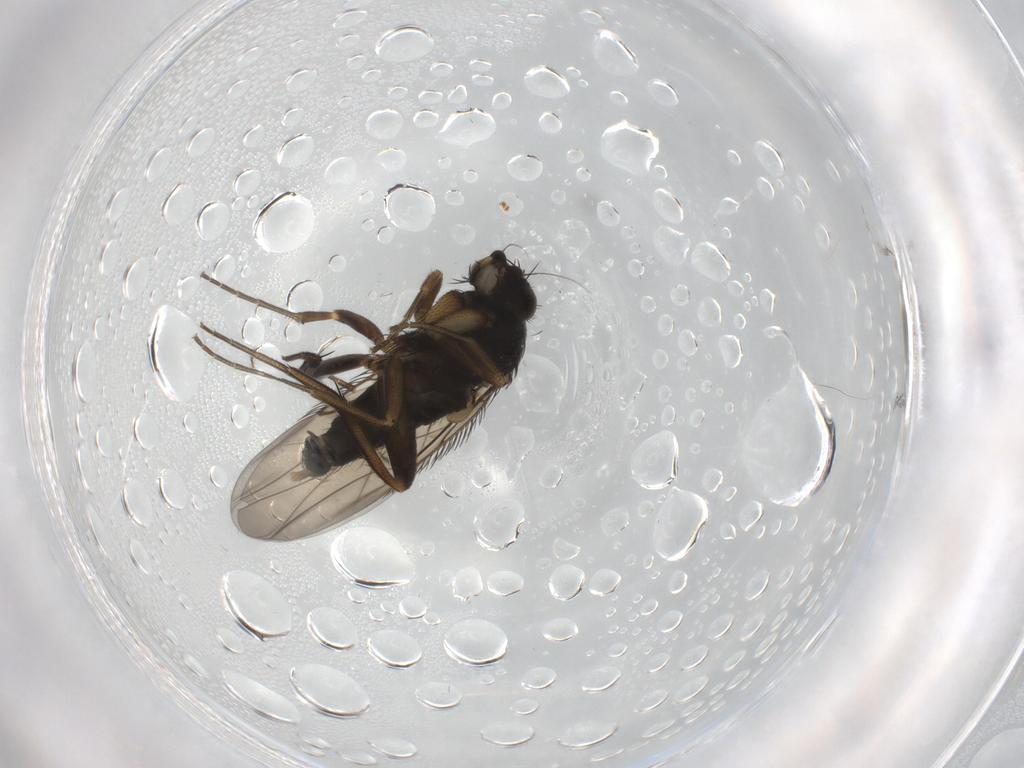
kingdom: Animalia
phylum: Arthropoda
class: Insecta
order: Diptera
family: Phoridae
